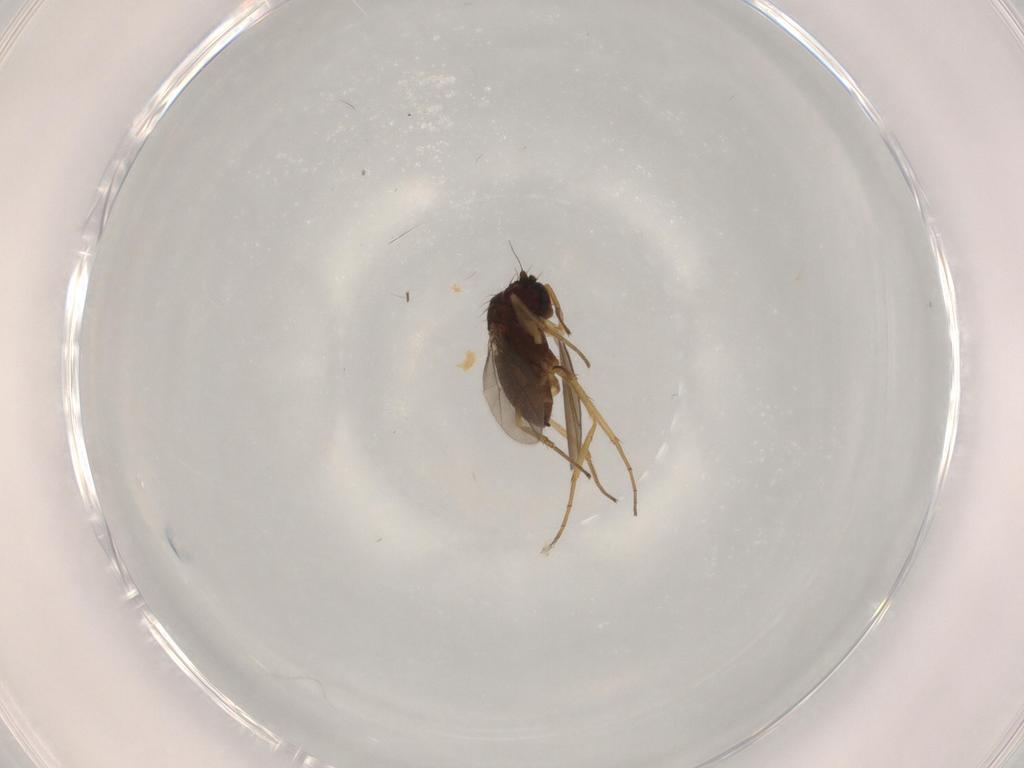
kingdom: Animalia
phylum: Arthropoda
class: Insecta
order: Diptera
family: Dolichopodidae
